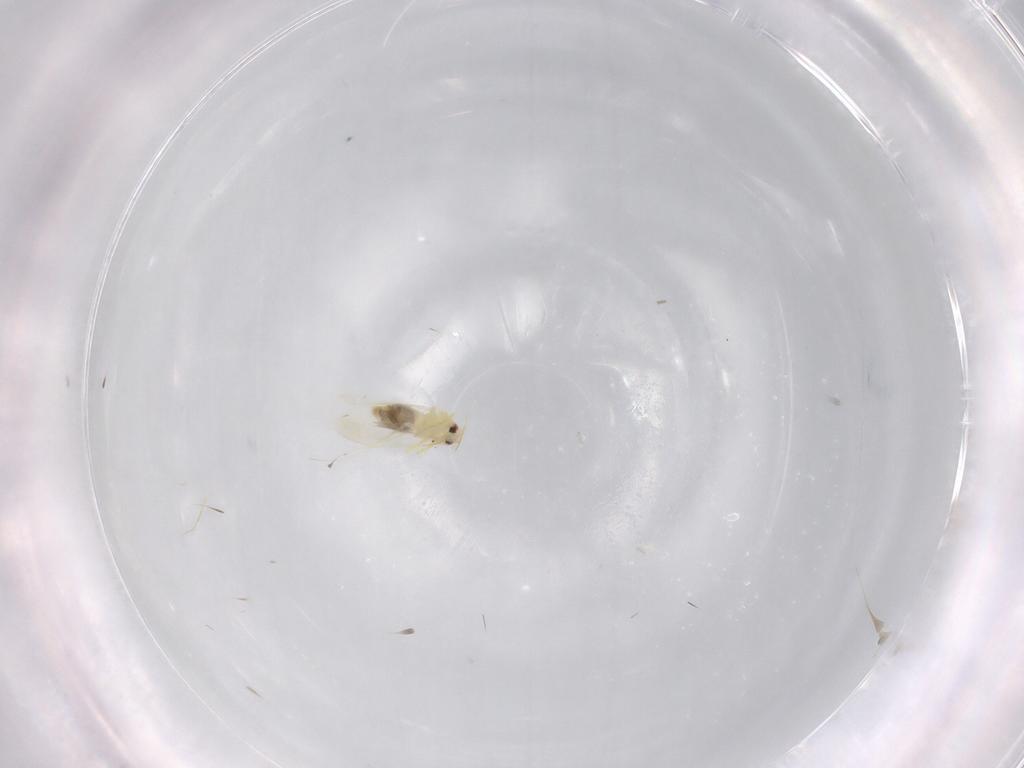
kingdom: Animalia
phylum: Arthropoda
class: Insecta
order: Hemiptera
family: Aleyrodidae
